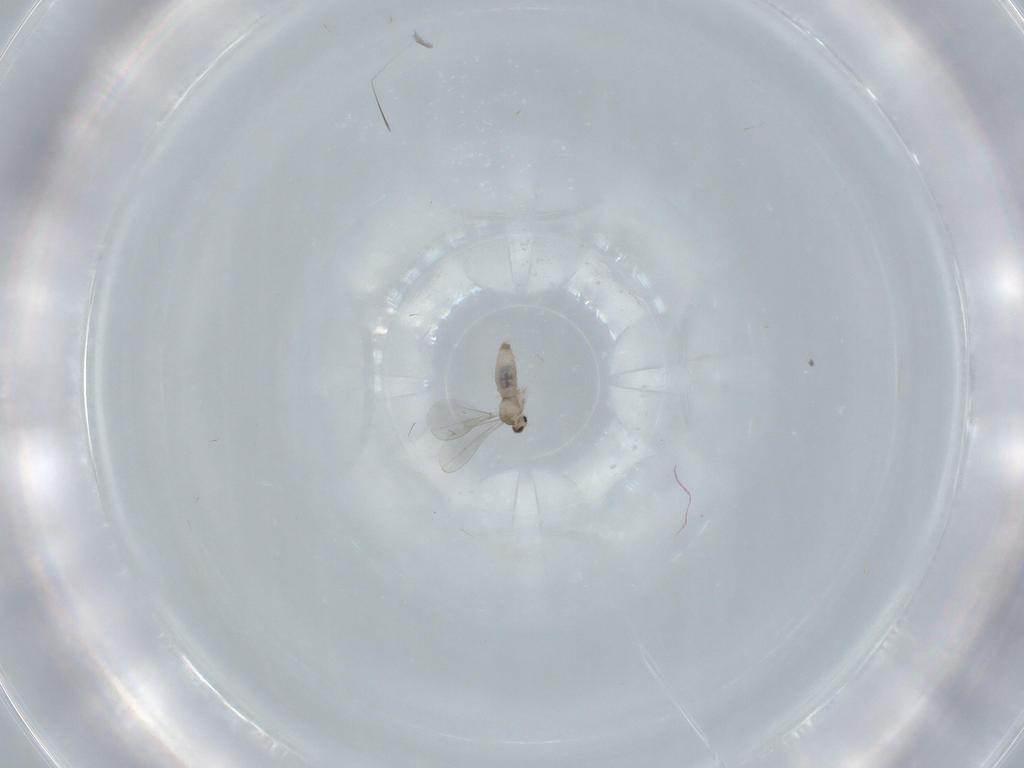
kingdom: Animalia
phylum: Arthropoda
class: Insecta
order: Diptera
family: Cecidomyiidae
